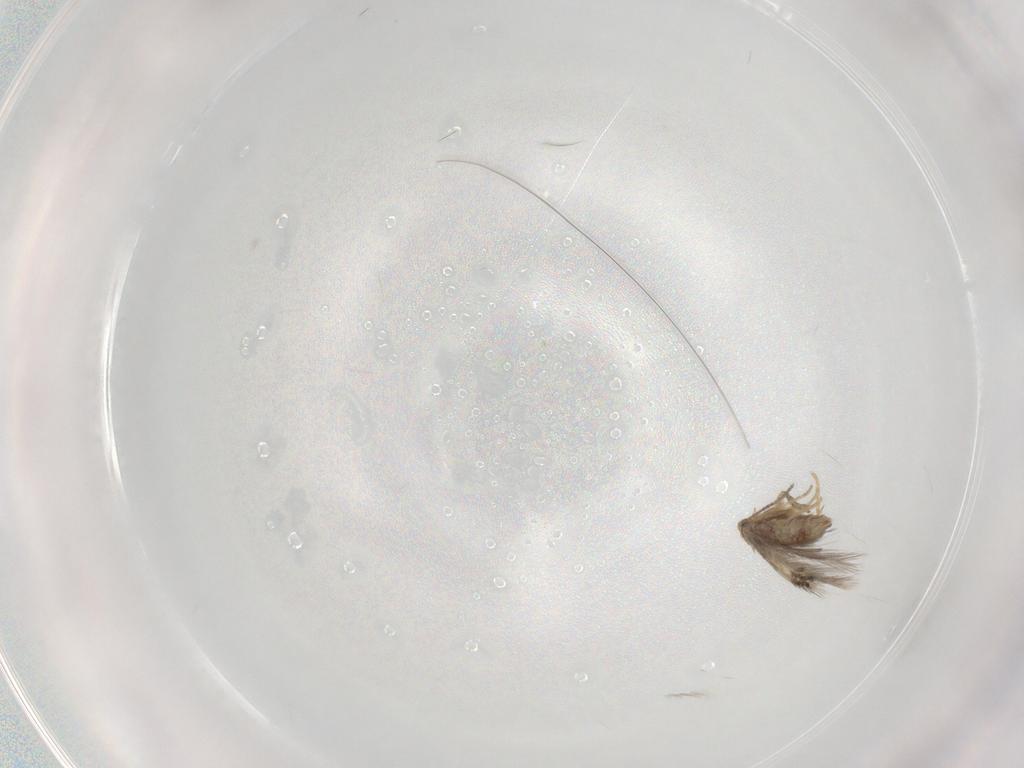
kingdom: Animalia
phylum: Arthropoda
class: Insecta
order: Lepidoptera
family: Nepticulidae
